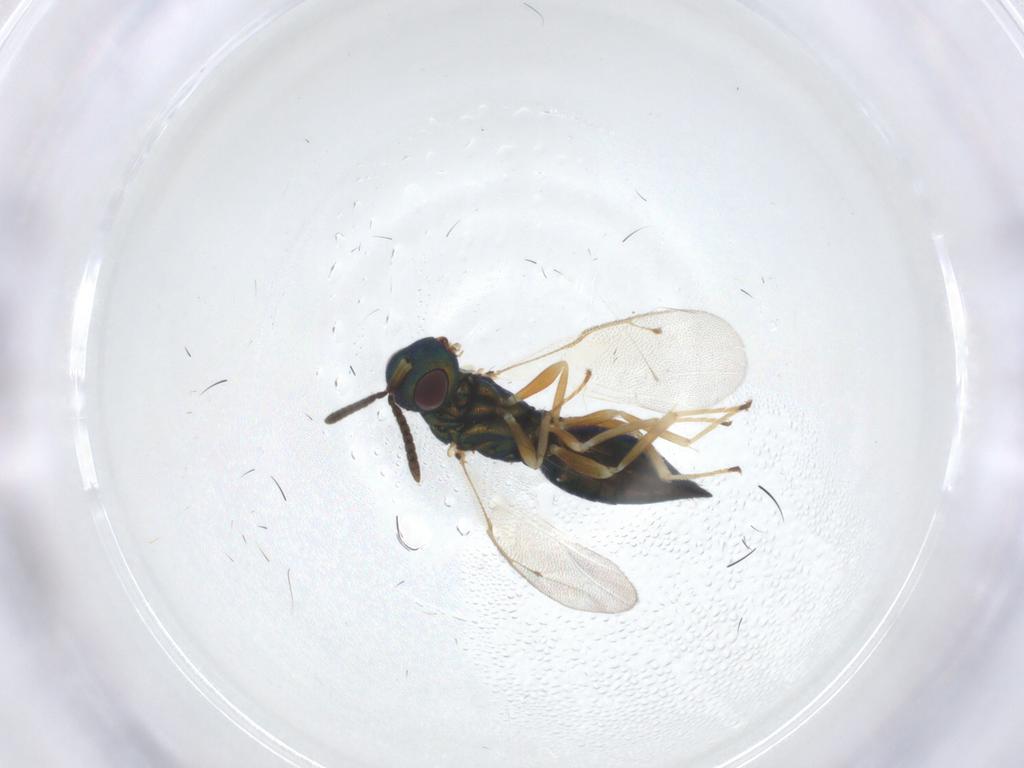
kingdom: Animalia
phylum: Arthropoda
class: Insecta
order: Hymenoptera
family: Pteromalidae
